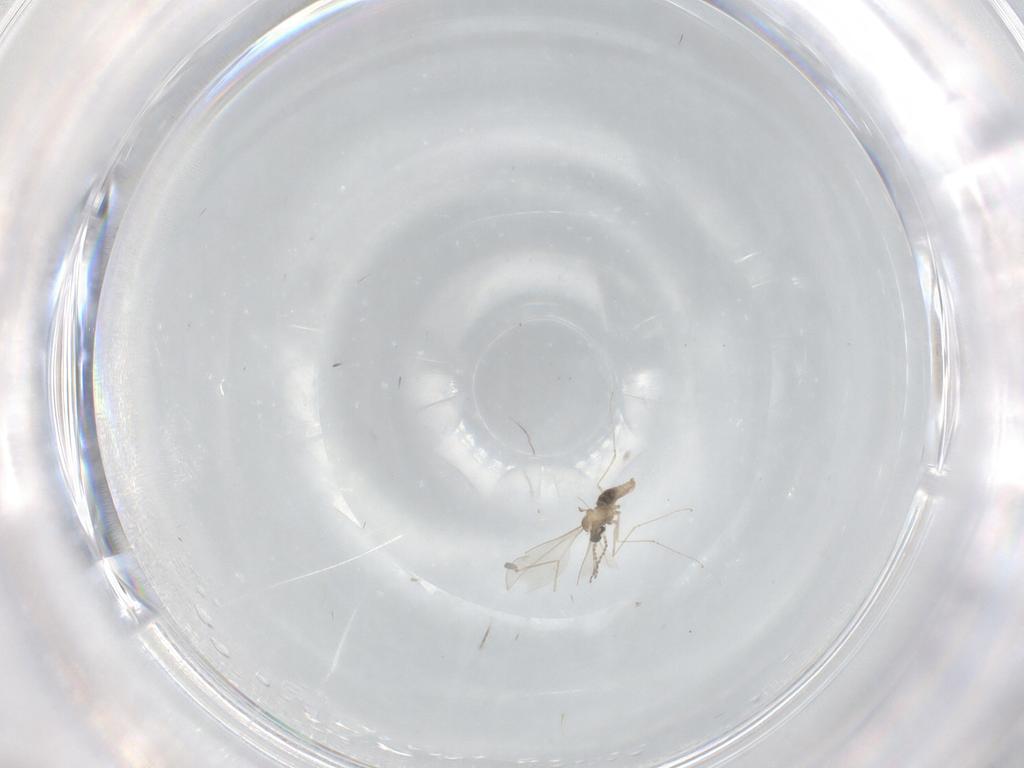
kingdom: Animalia
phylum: Arthropoda
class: Insecta
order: Diptera
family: Cecidomyiidae
